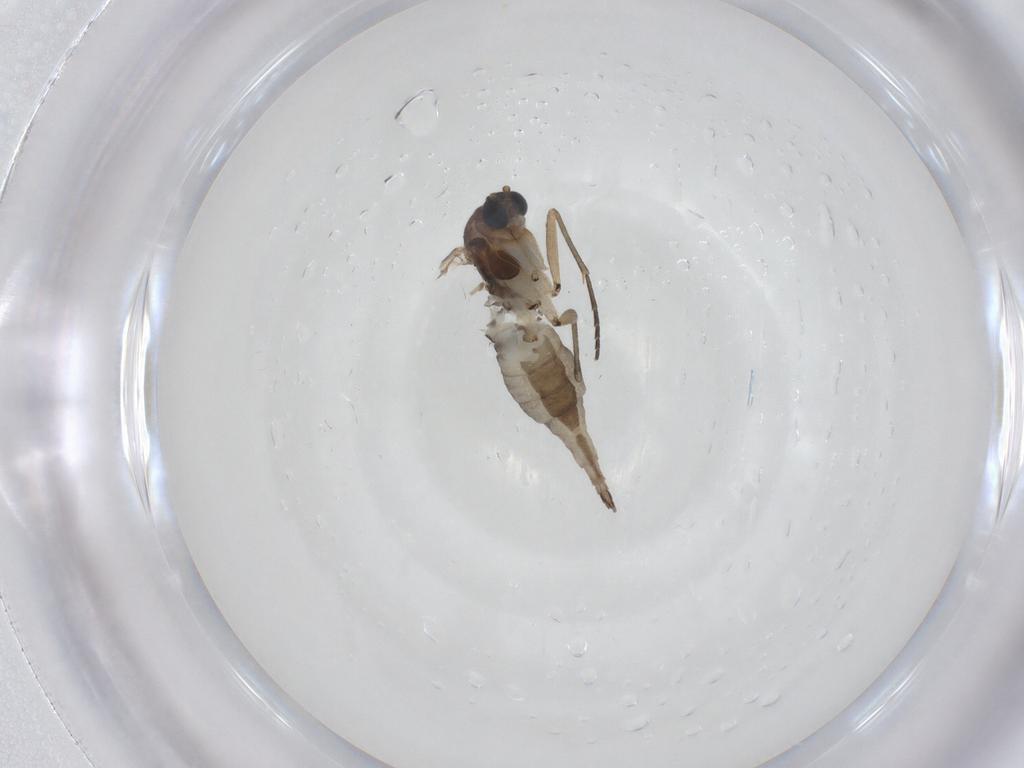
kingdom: Animalia
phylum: Arthropoda
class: Insecta
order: Diptera
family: Sciaridae
